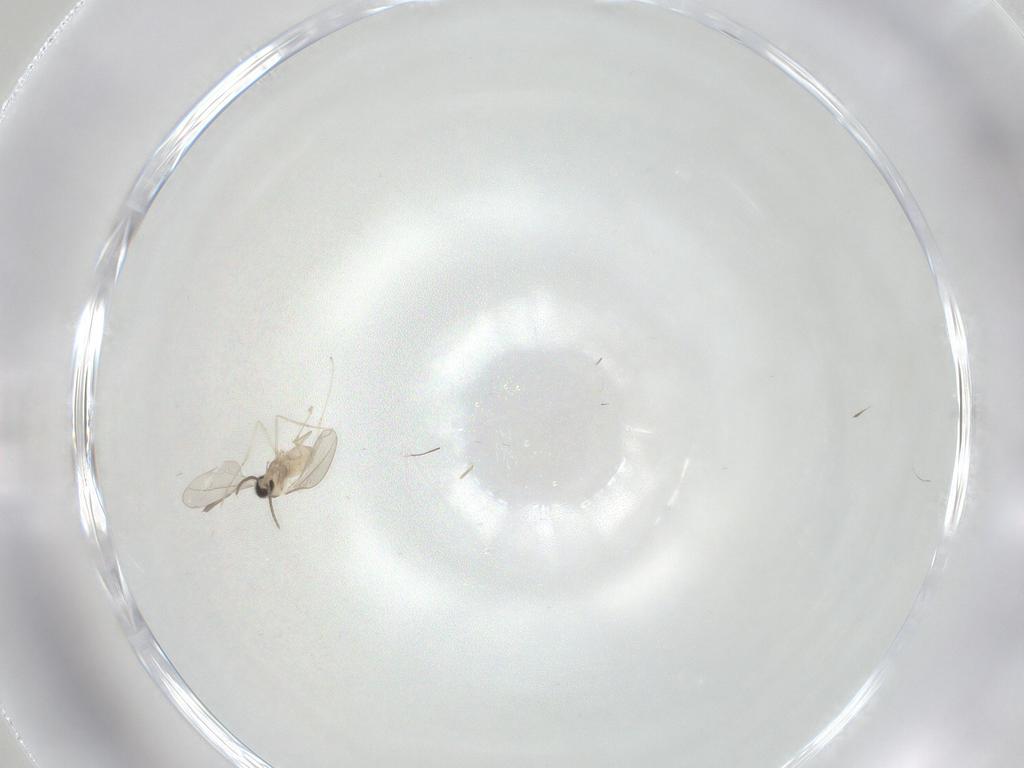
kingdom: Animalia
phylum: Arthropoda
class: Insecta
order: Diptera
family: Cecidomyiidae
